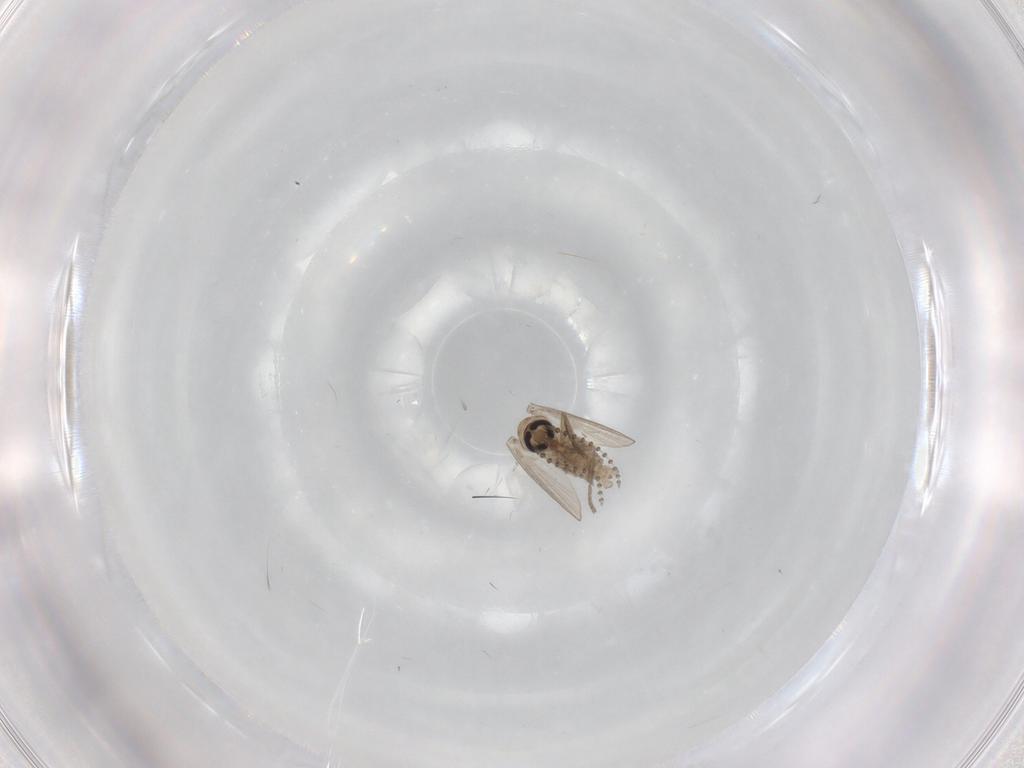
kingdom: Animalia
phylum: Arthropoda
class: Insecta
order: Diptera
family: Psychodidae
